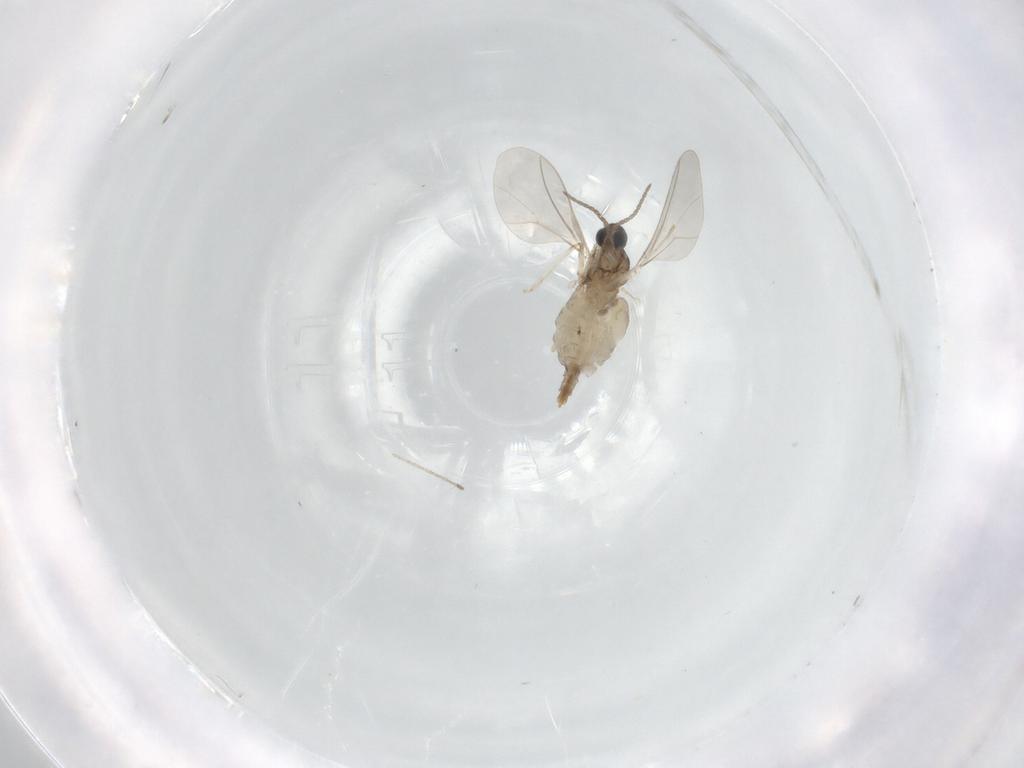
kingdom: Animalia
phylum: Arthropoda
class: Insecta
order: Diptera
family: Cecidomyiidae
